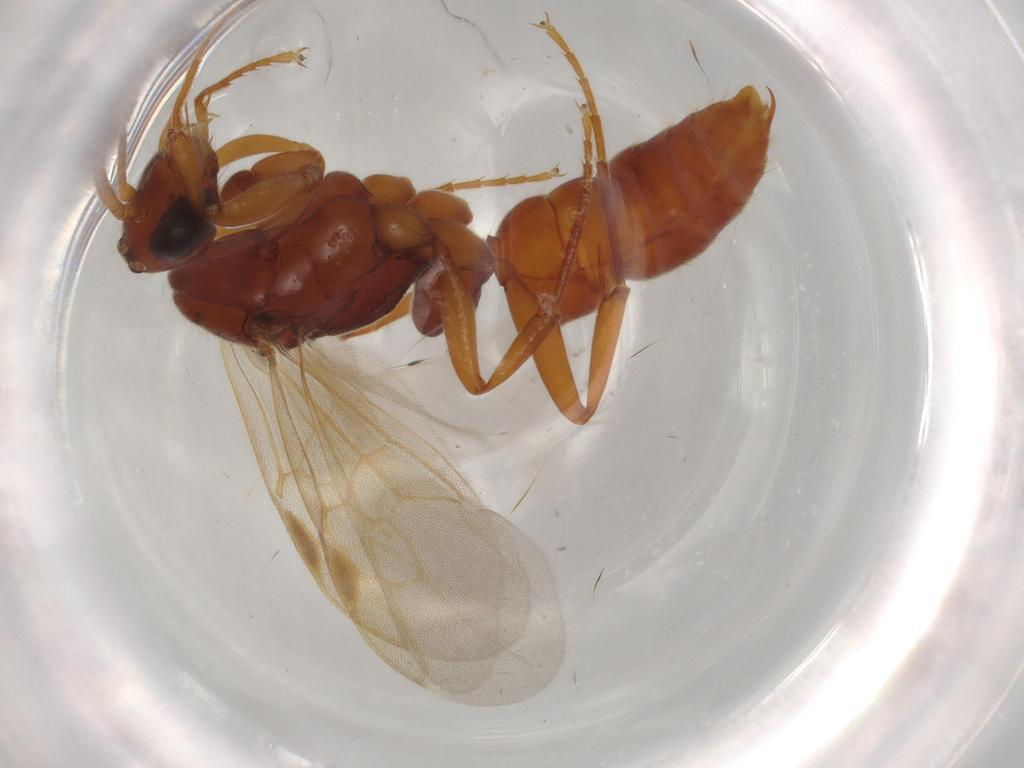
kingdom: Animalia
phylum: Arthropoda
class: Insecta
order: Hymenoptera
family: Formicidae
